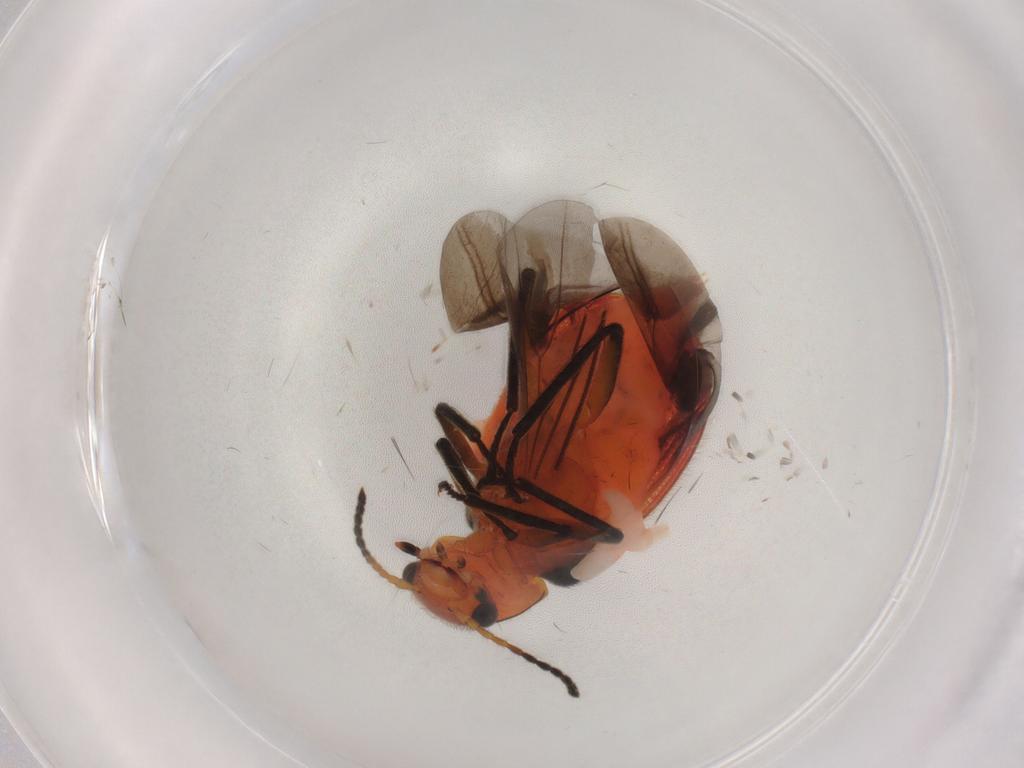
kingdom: Animalia
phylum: Arthropoda
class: Insecta
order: Coleoptera
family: Melyridae
